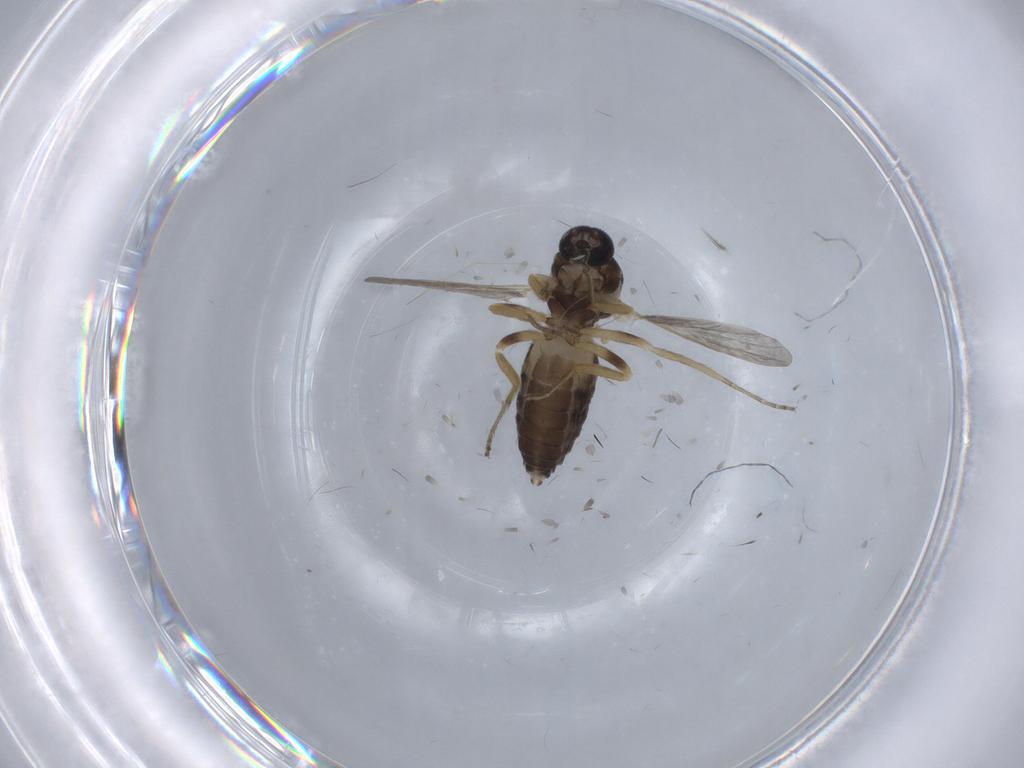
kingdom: Animalia
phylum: Arthropoda
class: Insecta
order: Diptera
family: Ceratopogonidae
